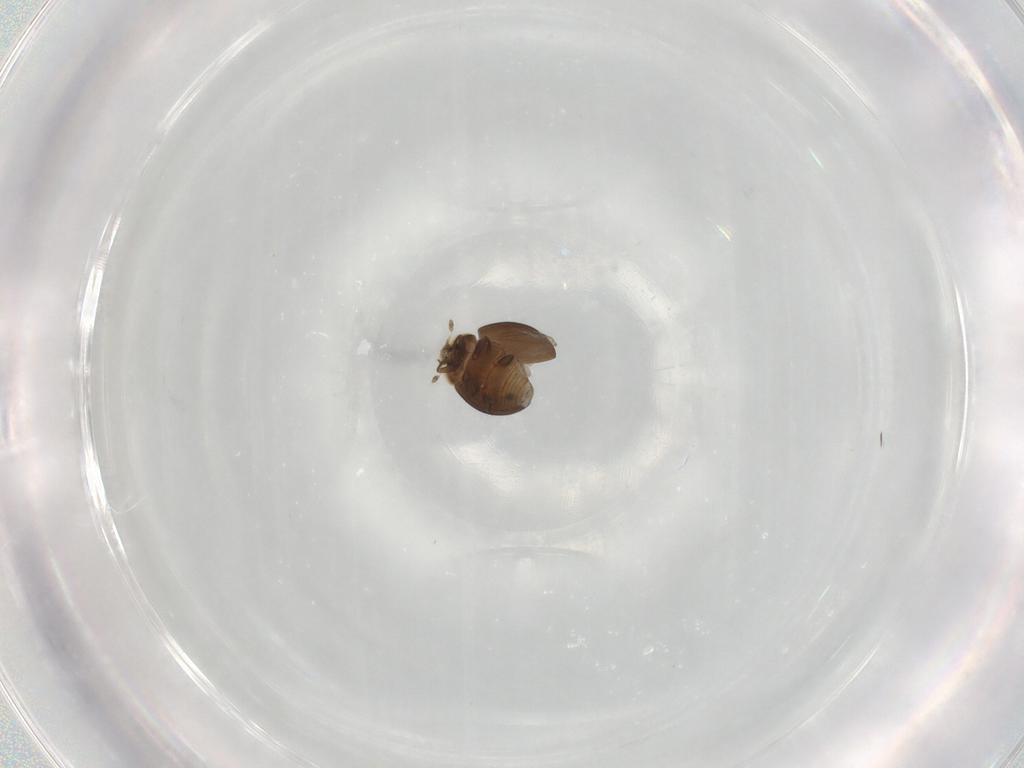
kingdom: Animalia
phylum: Arthropoda
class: Insecta
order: Coleoptera
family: Corylophidae
